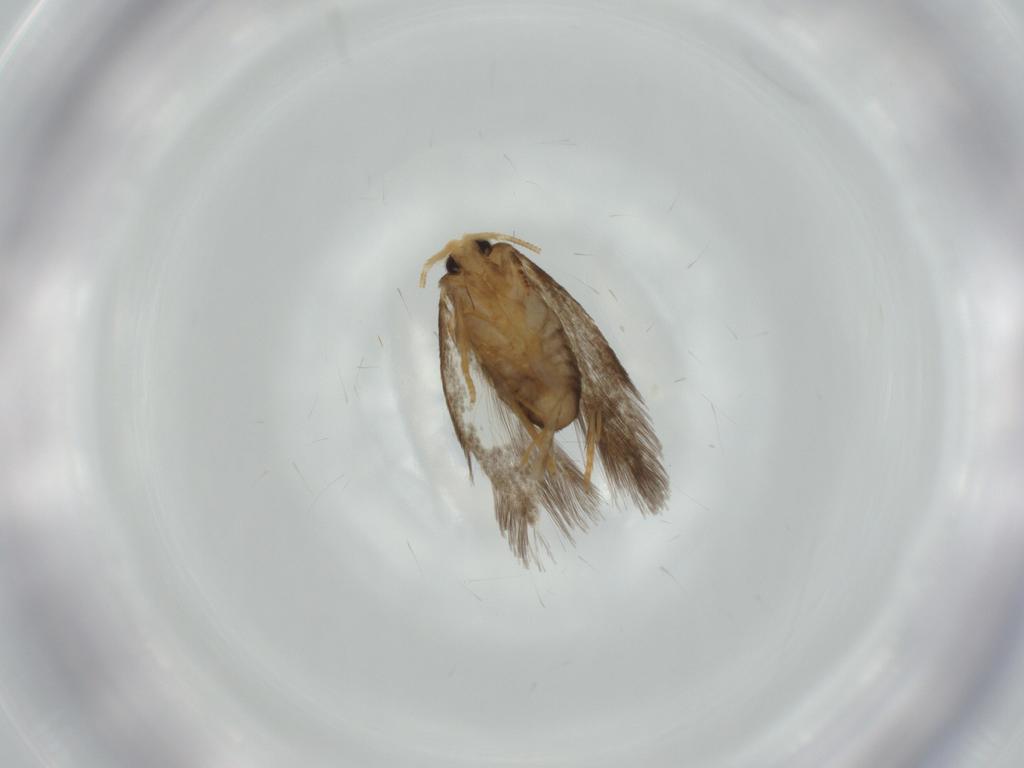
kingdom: Animalia
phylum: Arthropoda
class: Insecta
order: Lepidoptera
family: Nepticulidae
